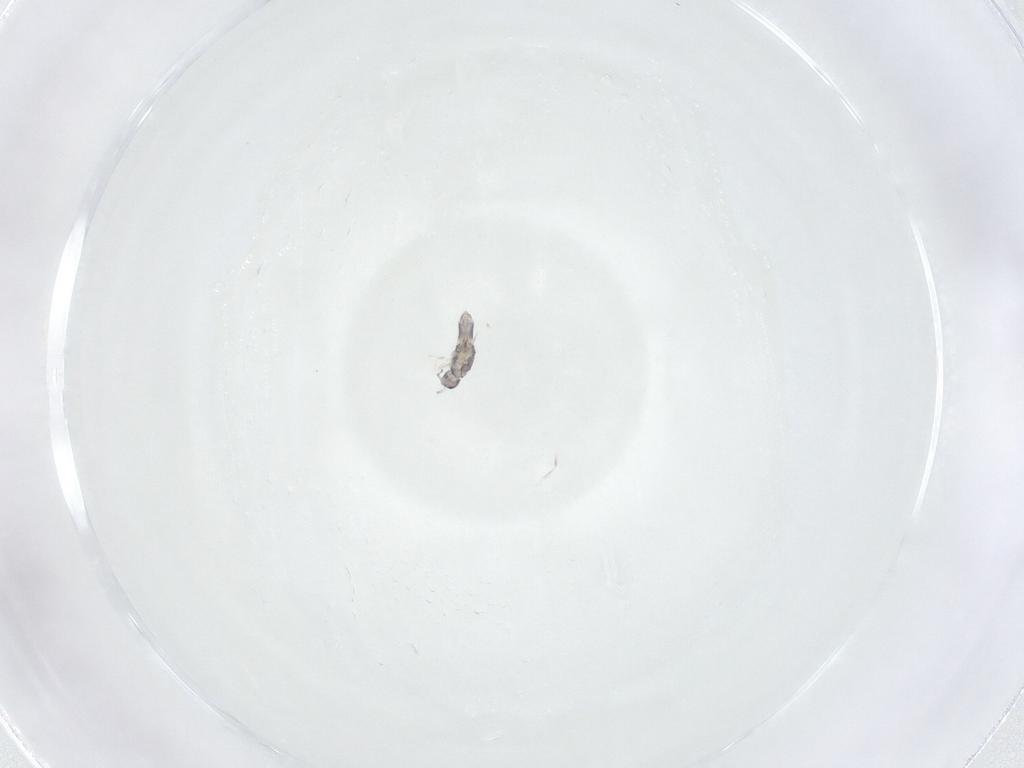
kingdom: Animalia
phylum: Arthropoda
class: Collembola
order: Entomobryomorpha
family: Entomobryidae
